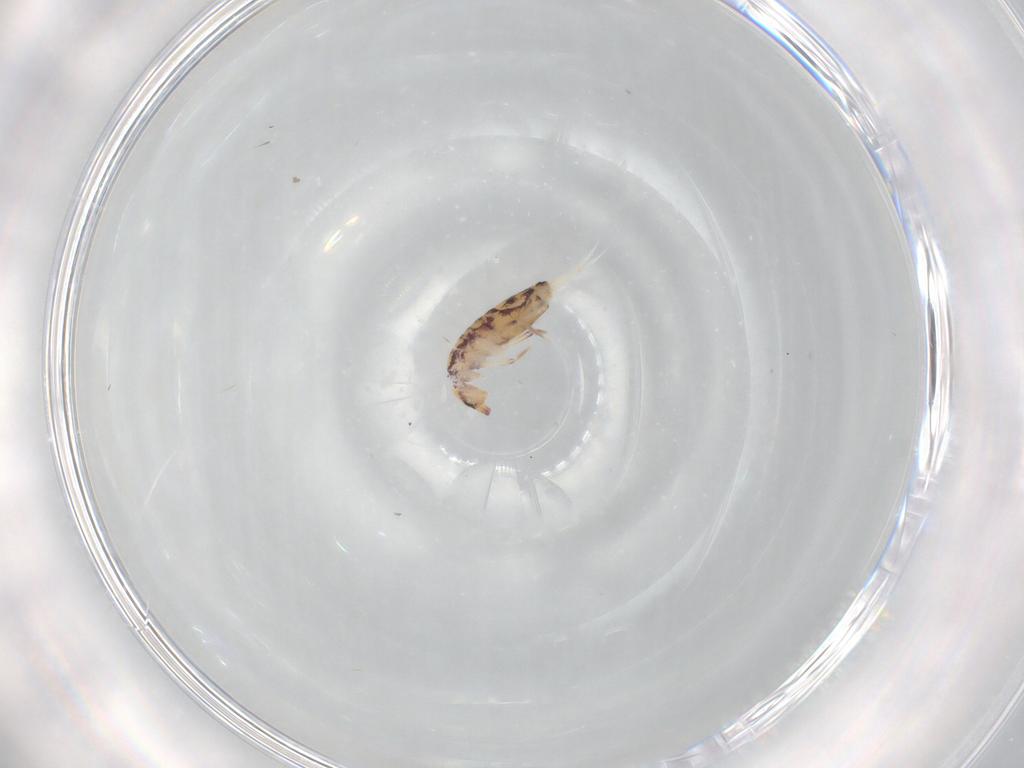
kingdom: Animalia
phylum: Arthropoda
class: Collembola
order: Entomobryomorpha
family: Entomobryidae
